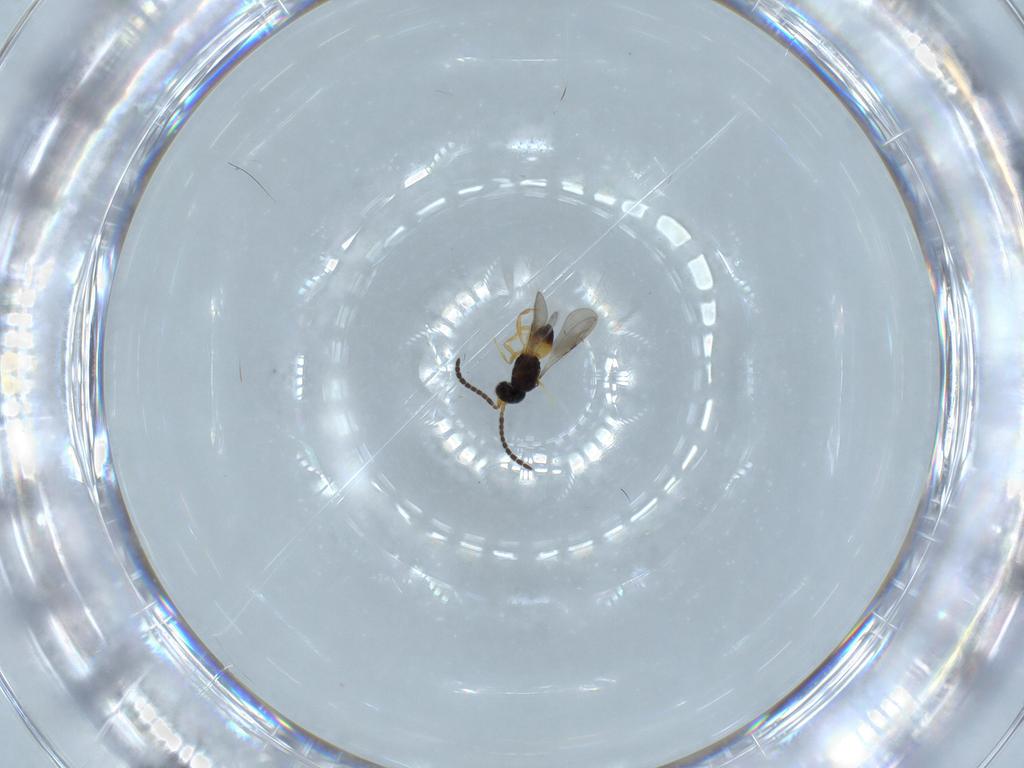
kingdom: Animalia
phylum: Arthropoda
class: Insecta
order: Hymenoptera
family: Ceraphronidae
